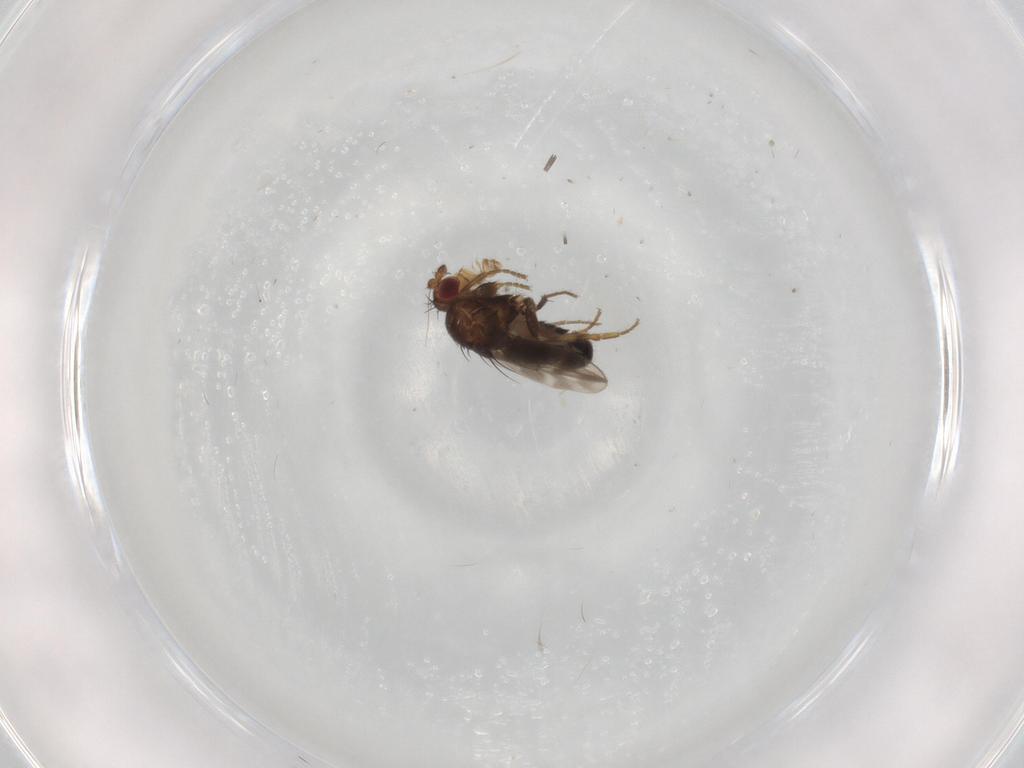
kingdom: Animalia
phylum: Arthropoda
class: Insecta
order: Diptera
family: Sphaeroceridae
